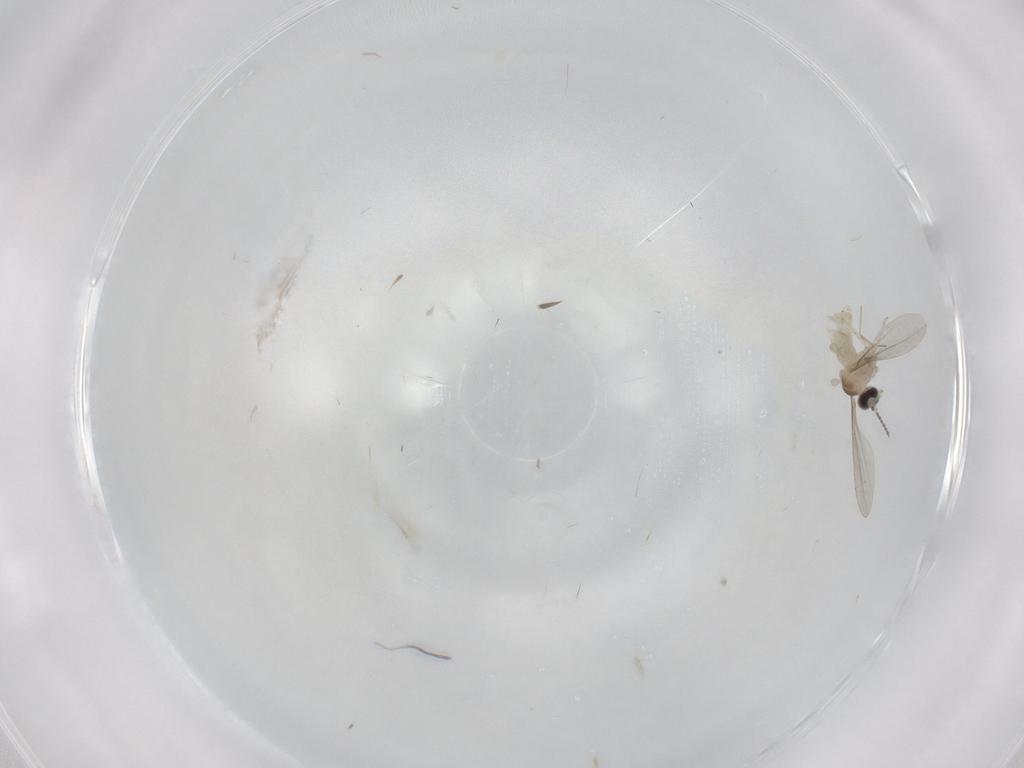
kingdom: Animalia
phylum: Arthropoda
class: Insecta
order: Diptera
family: Cecidomyiidae
